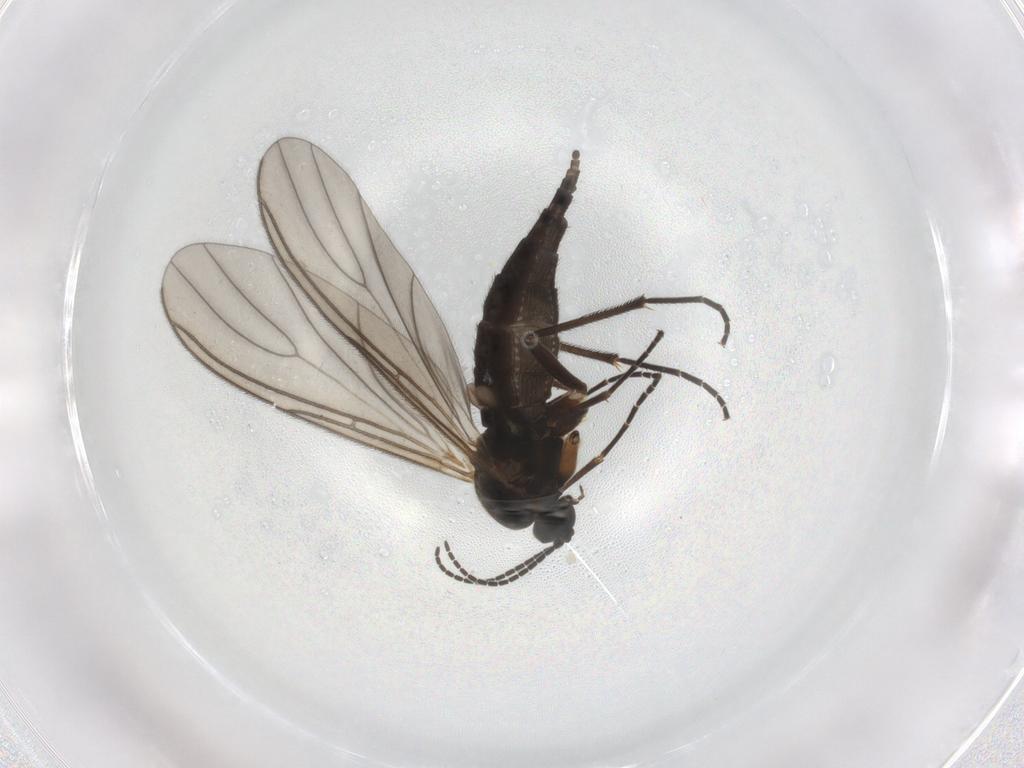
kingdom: Animalia
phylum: Arthropoda
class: Insecta
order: Diptera
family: Sciaridae
